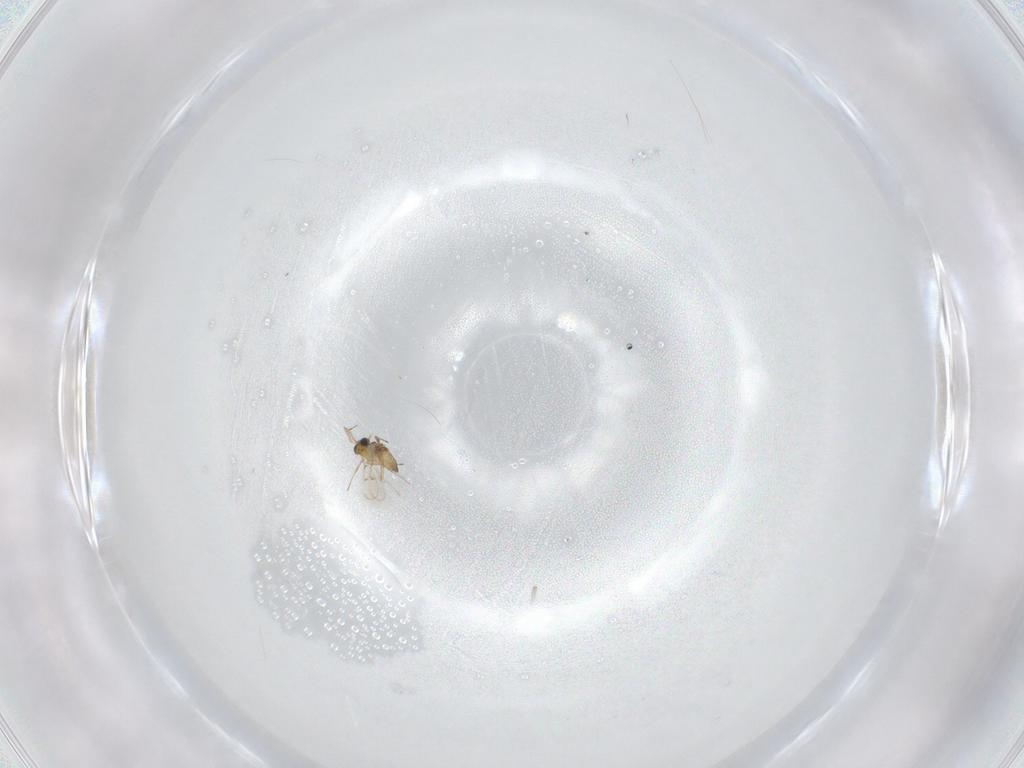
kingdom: Animalia
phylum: Arthropoda
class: Insecta
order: Hymenoptera
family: Trichogrammatidae
